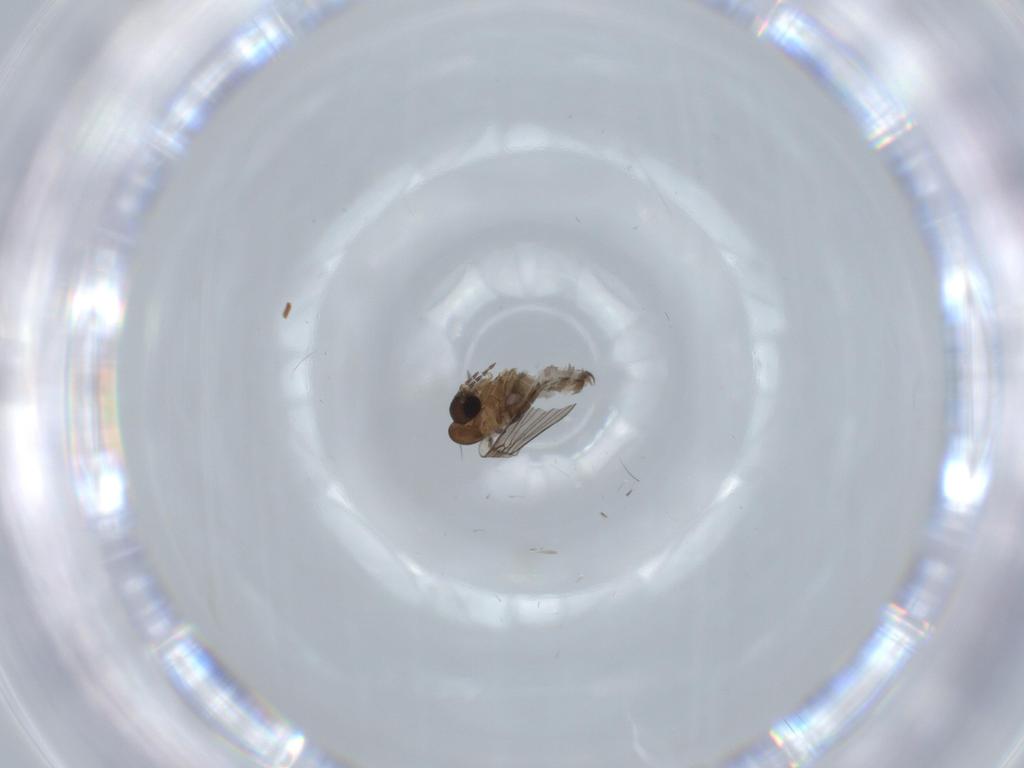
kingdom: Animalia
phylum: Arthropoda
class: Insecta
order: Diptera
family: Psychodidae
